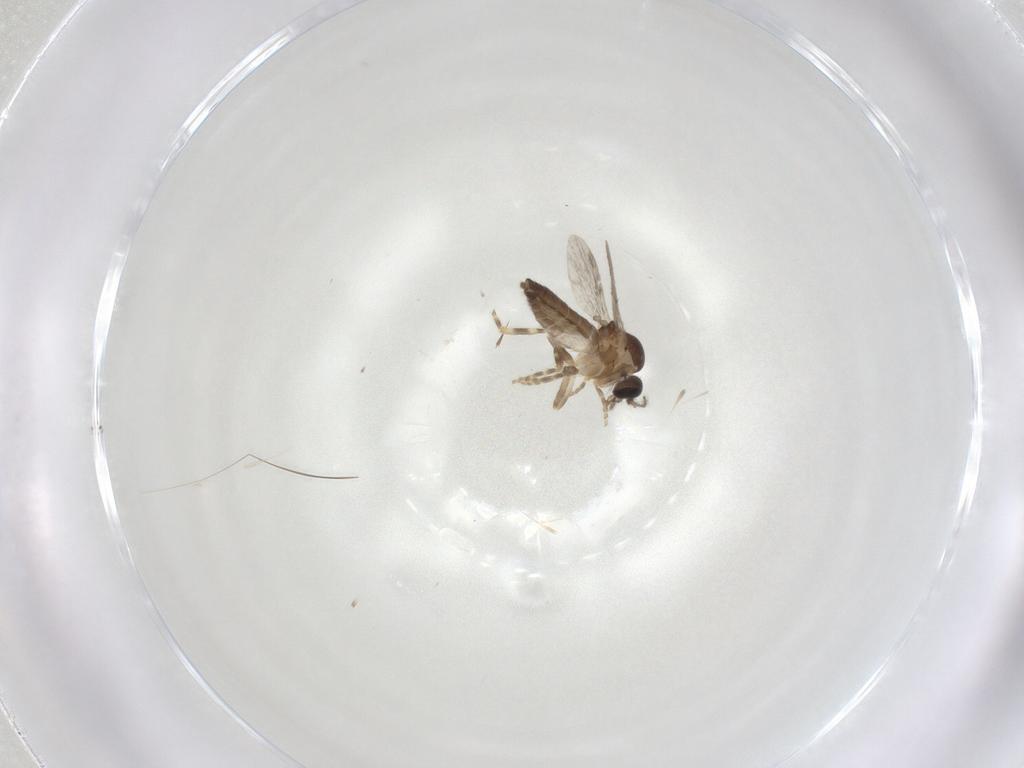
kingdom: Animalia
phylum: Arthropoda
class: Insecta
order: Diptera
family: Ceratopogonidae
